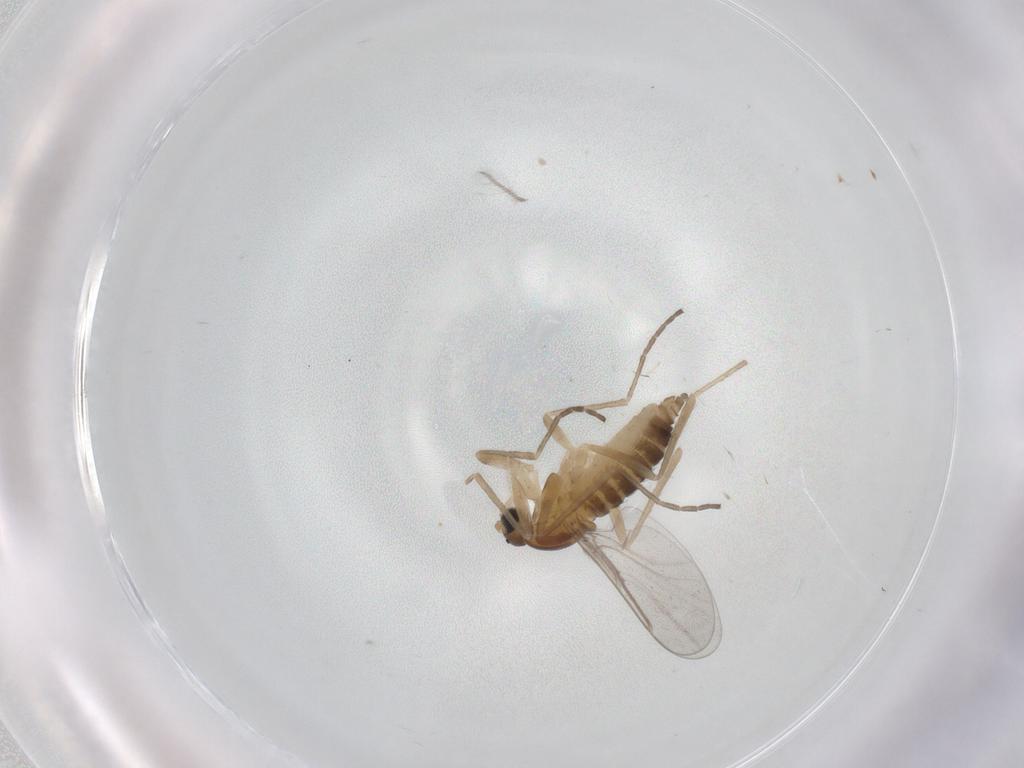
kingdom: Animalia
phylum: Arthropoda
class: Insecta
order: Diptera
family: Cecidomyiidae
